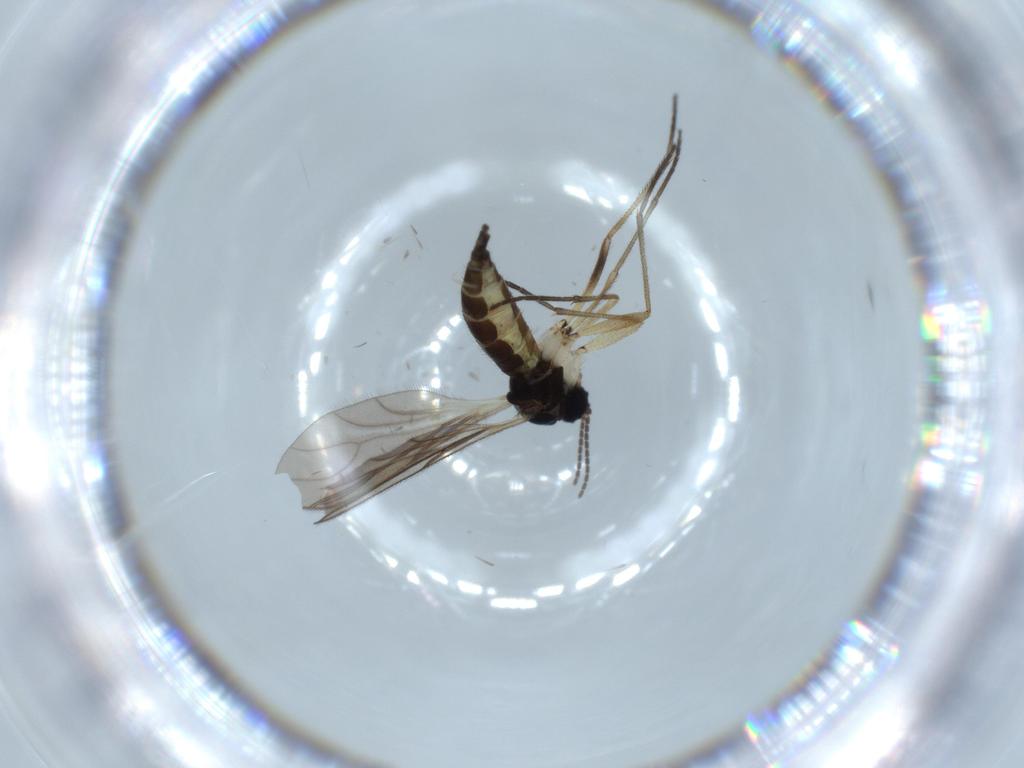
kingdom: Animalia
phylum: Arthropoda
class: Insecta
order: Diptera
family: Sciaridae
